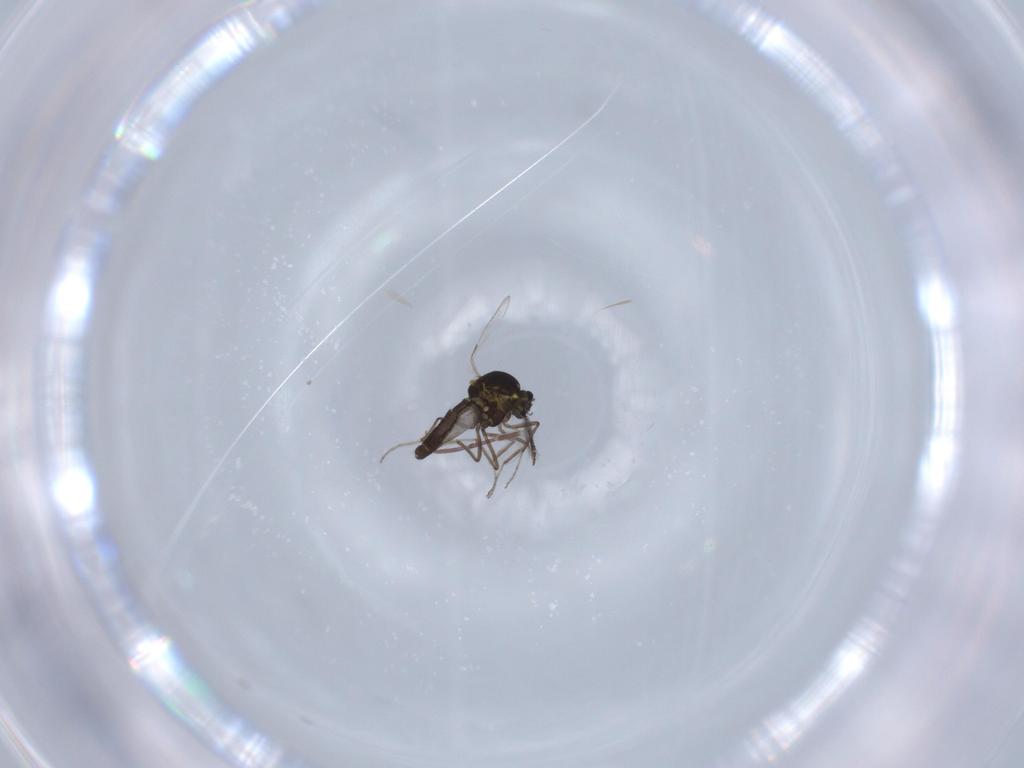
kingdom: Animalia
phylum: Arthropoda
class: Insecta
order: Diptera
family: Ceratopogonidae
